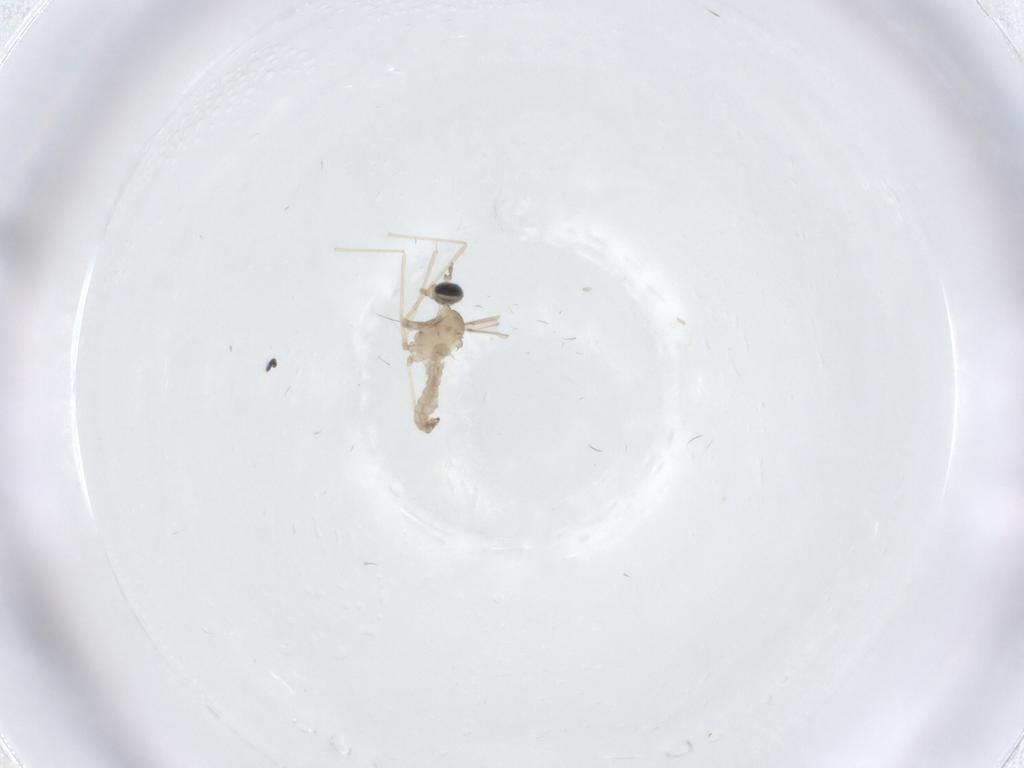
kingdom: Animalia
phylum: Arthropoda
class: Insecta
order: Diptera
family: Cecidomyiidae
